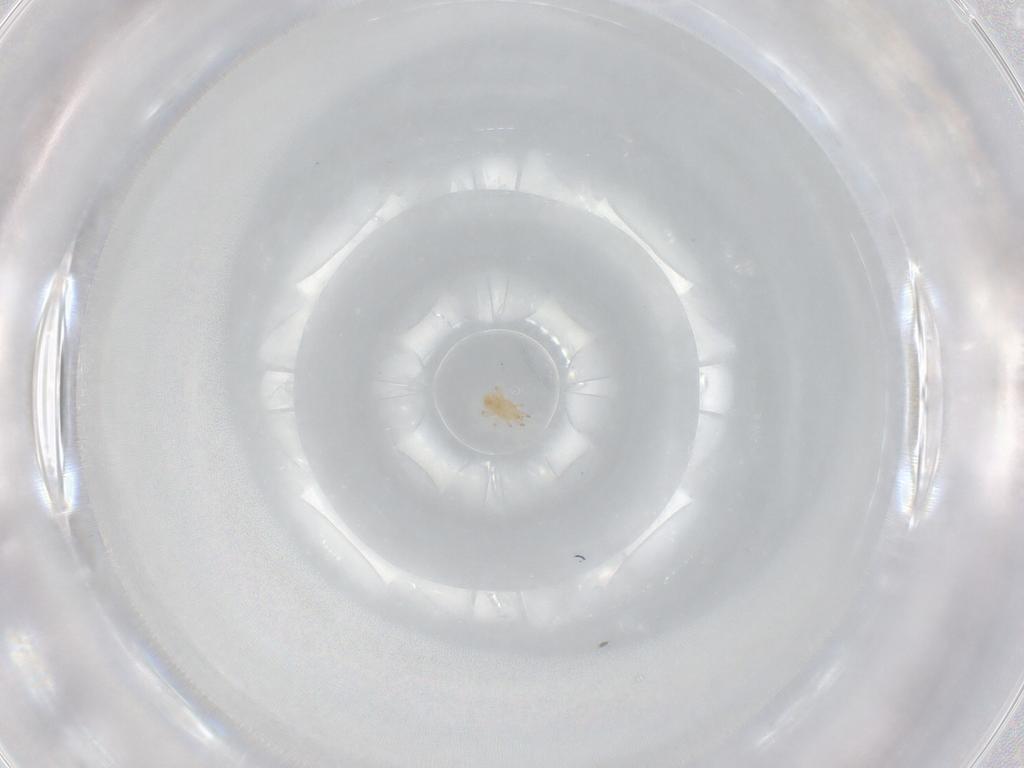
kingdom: Animalia
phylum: Arthropoda
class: Arachnida
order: Mesostigmata
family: Phytoseiidae
